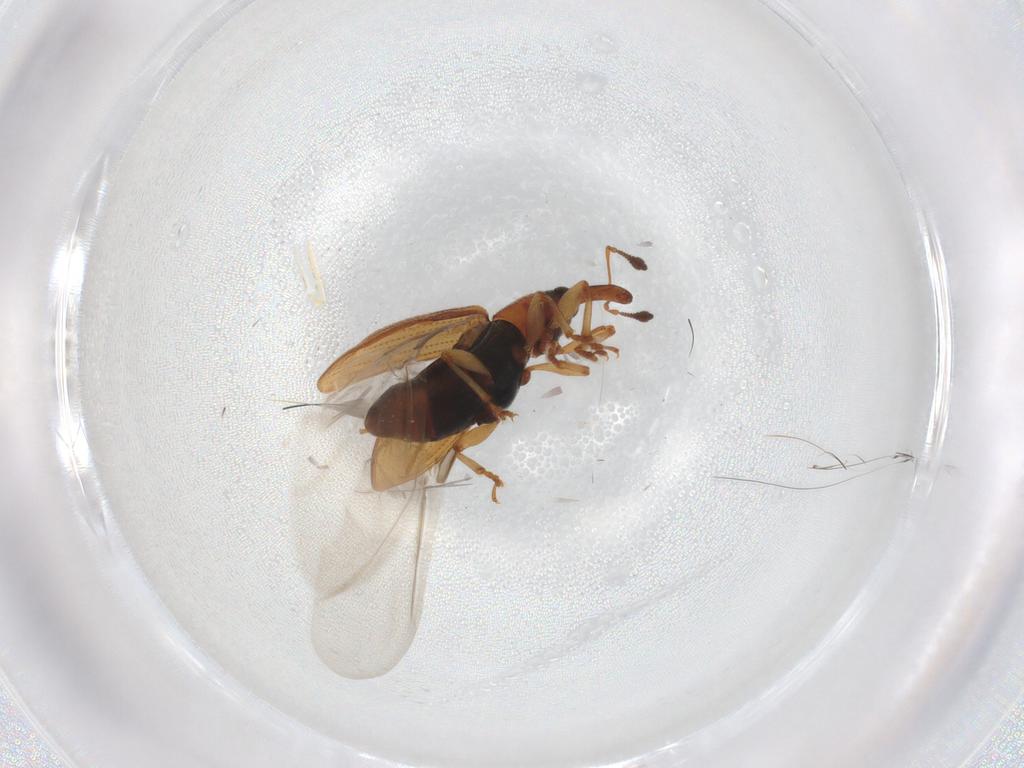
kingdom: Animalia
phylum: Arthropoda
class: Insecta
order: Coleoptera
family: Curculionidae
